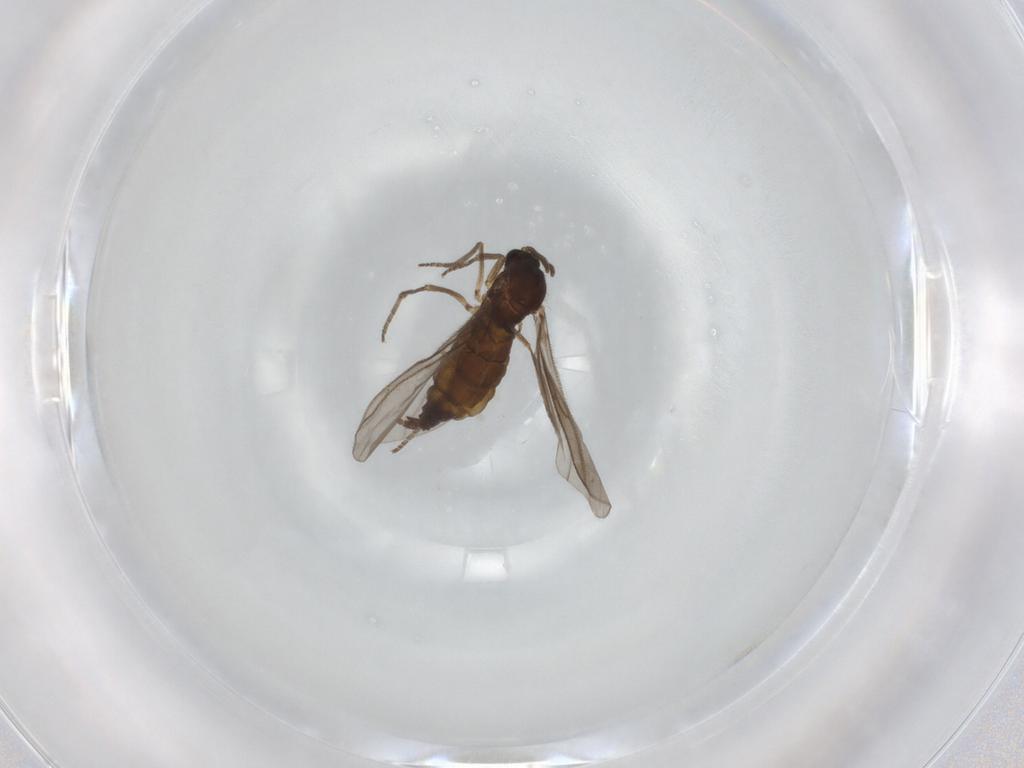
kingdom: Animalia
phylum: Arthropoda
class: Insecta
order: Diptera
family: Sciaridae
